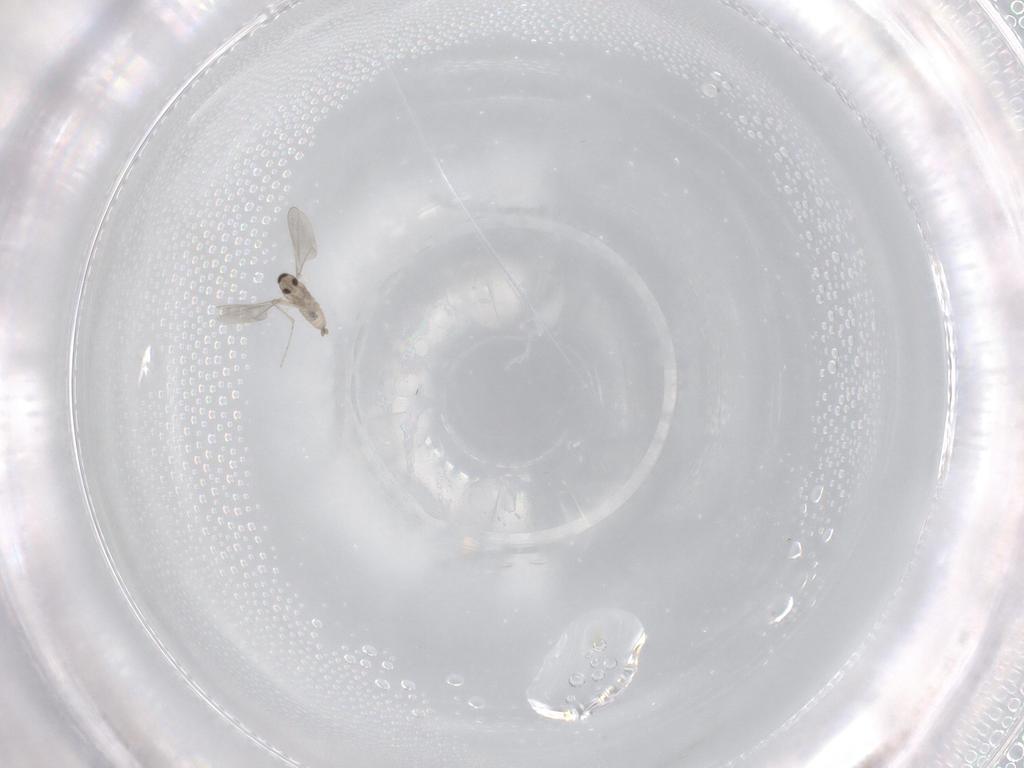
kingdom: Animalia
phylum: Arthropoda
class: Insecta
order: Diptera
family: Cecidomyiidae
